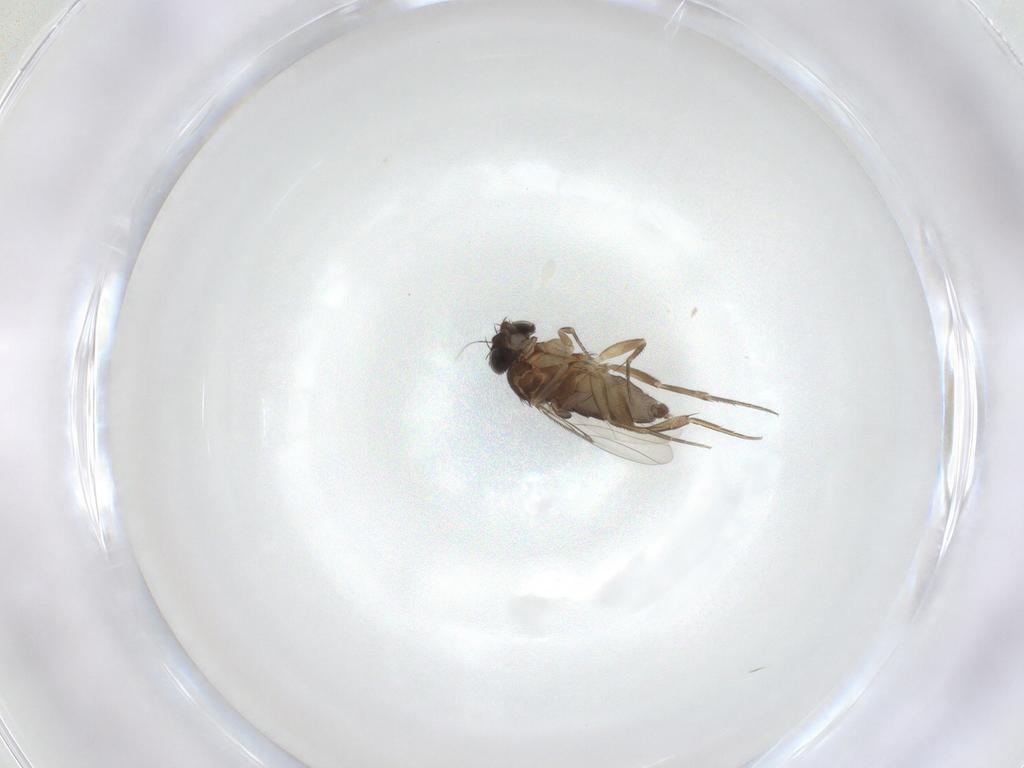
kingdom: Animalia
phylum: Arthropoda
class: Insecta
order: Diptera
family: Phoridae
